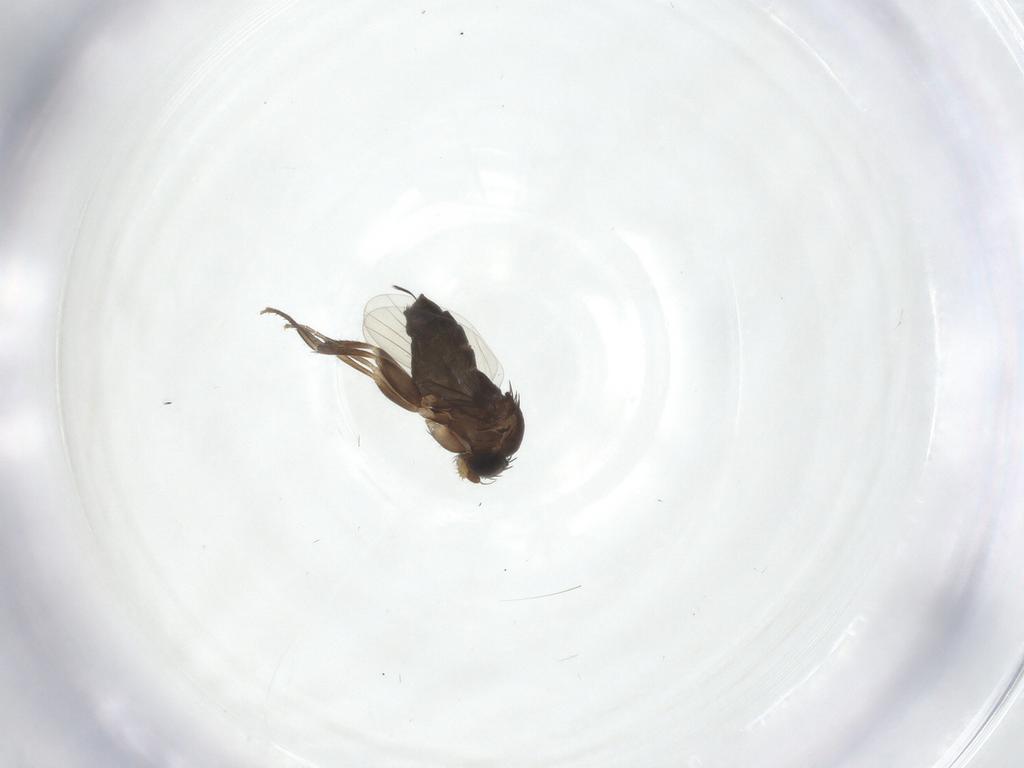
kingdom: Animalia
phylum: Arthropoda
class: Insecta
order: Diptera
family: Phoridae
